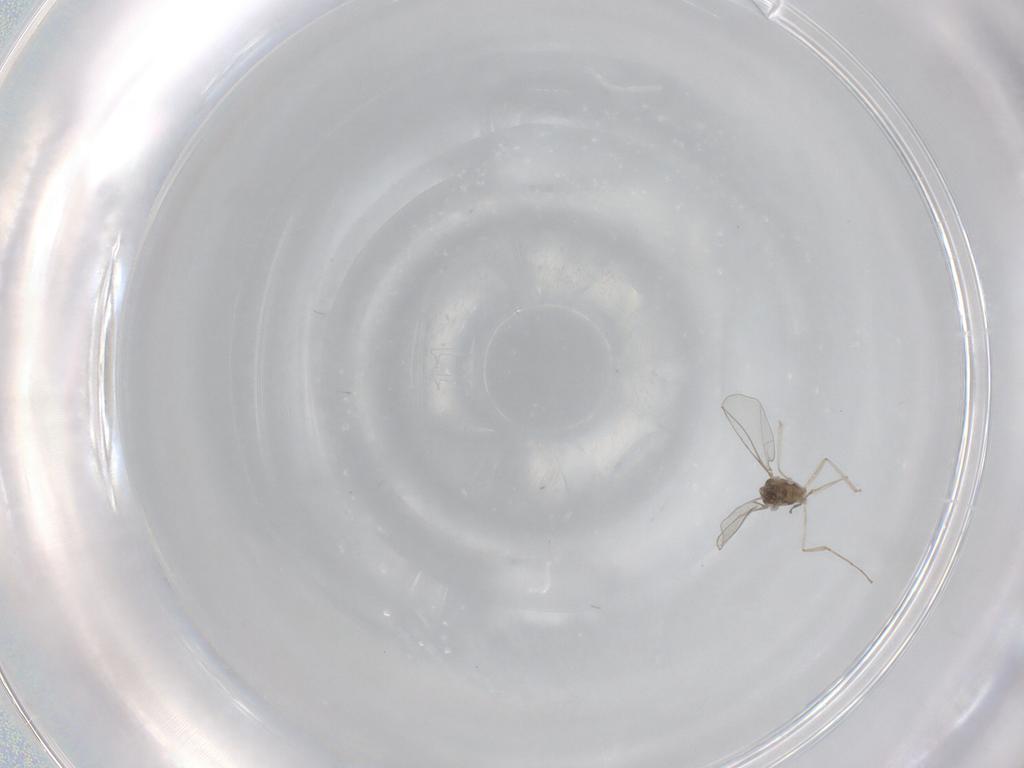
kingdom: Animalia
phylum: Arthropoda
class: Insecta
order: Diptera
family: Cecidomyiidae
